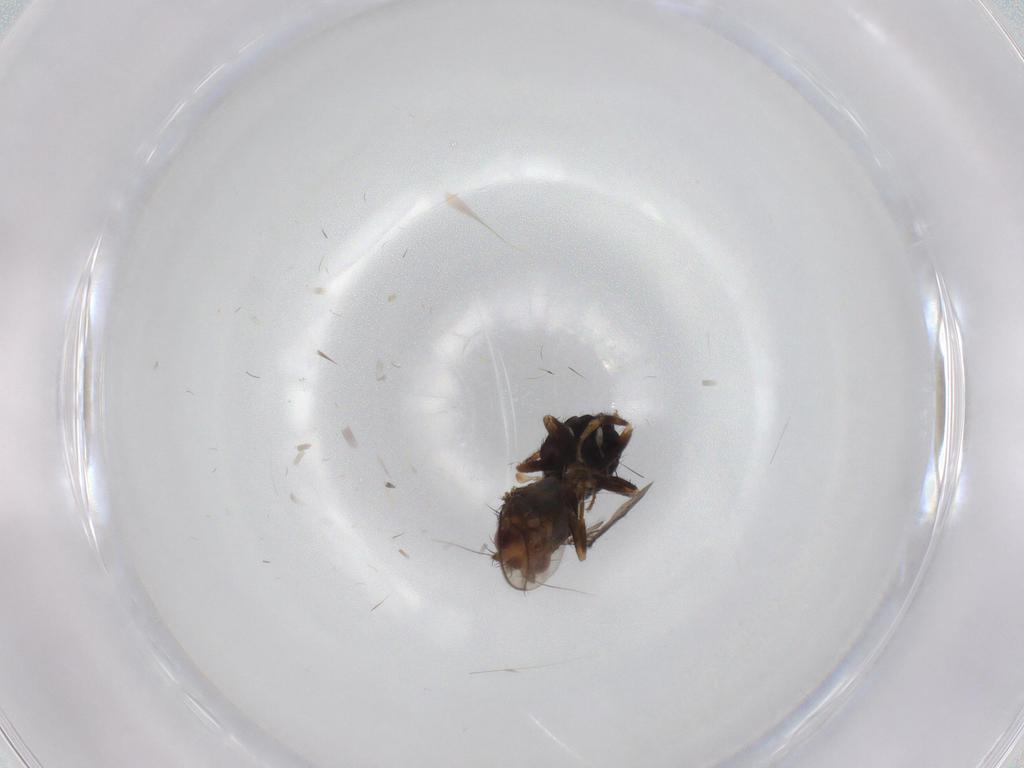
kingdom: Animalia
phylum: Arthropoda
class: Insecta
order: Diptera
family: Sphaeroceridae
